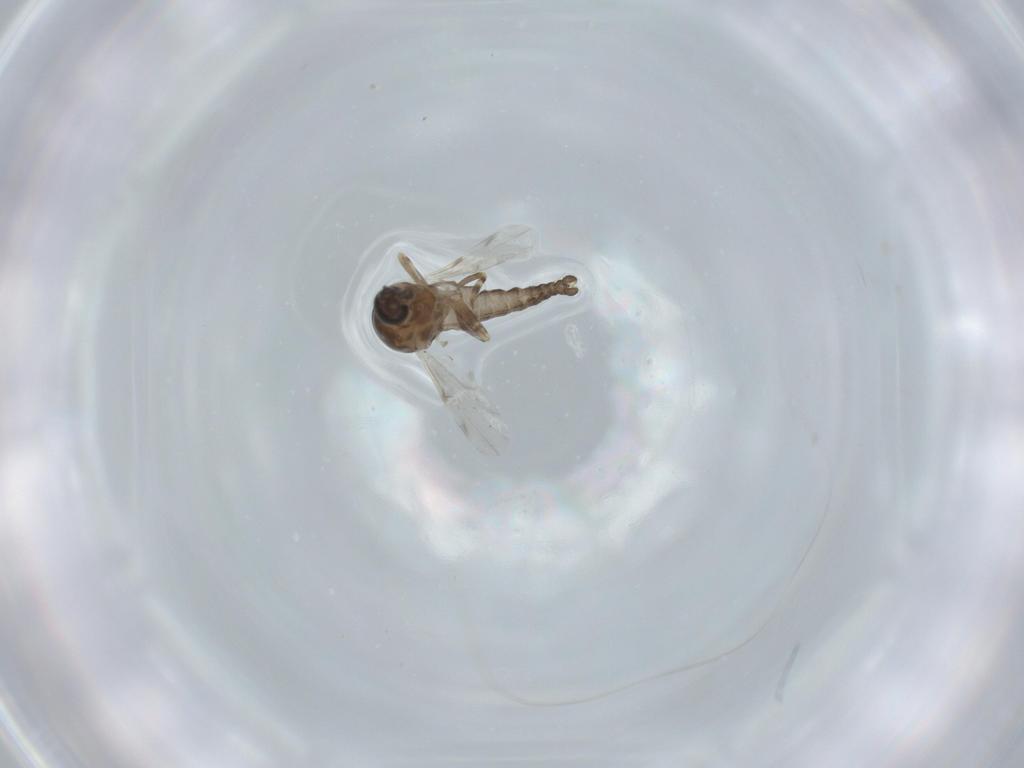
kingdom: Animalia
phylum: Arthropoda
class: Insecta
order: Diptera
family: Ceratopogonidae
